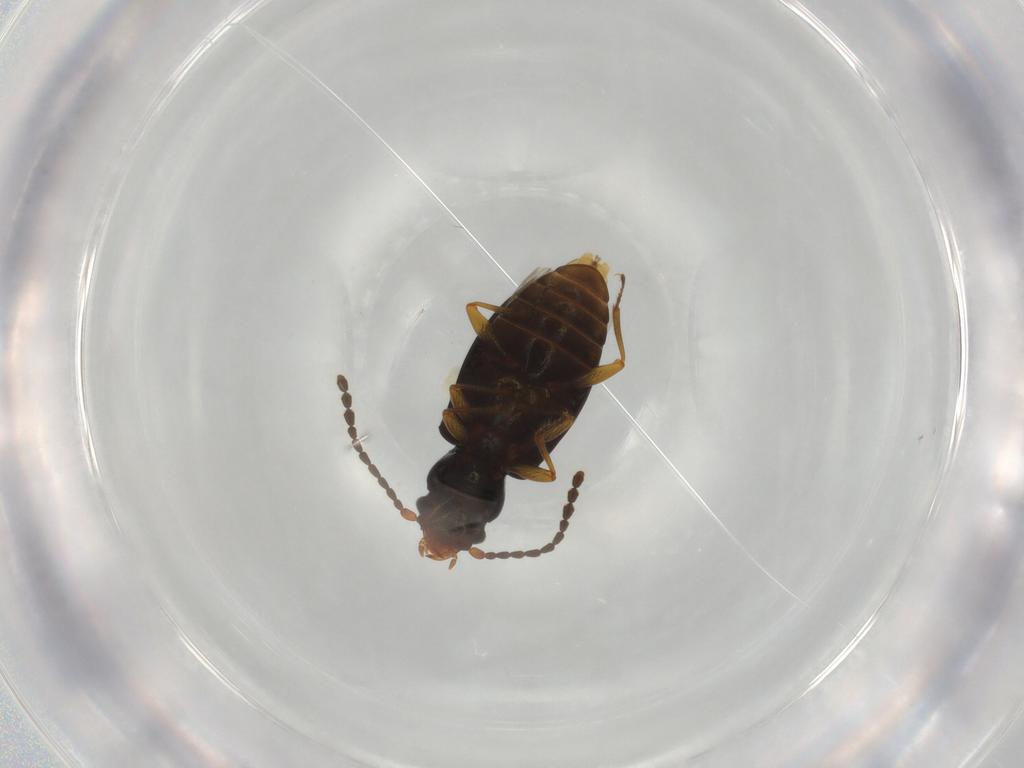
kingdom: Animalia
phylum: Arthropoda
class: Insecta
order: Coleoptera
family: Laemophloeidae
